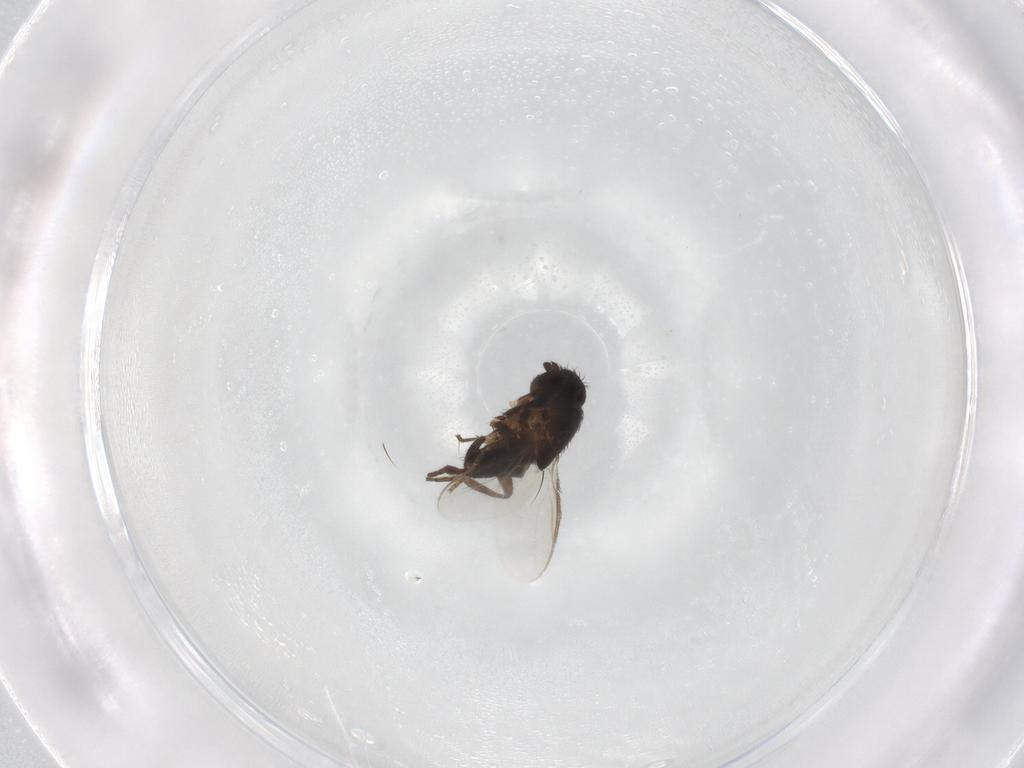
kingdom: Animalia
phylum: Arthropoda
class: Insecta
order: Diptera
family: Sphaeroceridae
